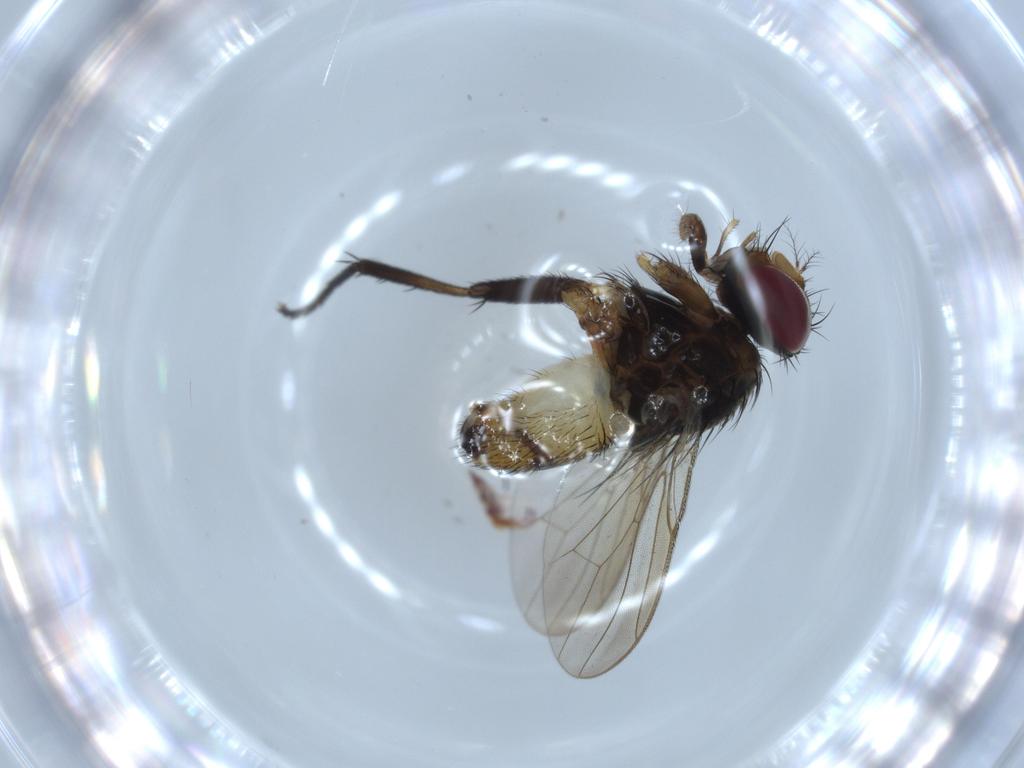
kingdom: Animalia
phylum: Arthropoda
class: Insecta
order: Diptera
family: Anthomyiidae
